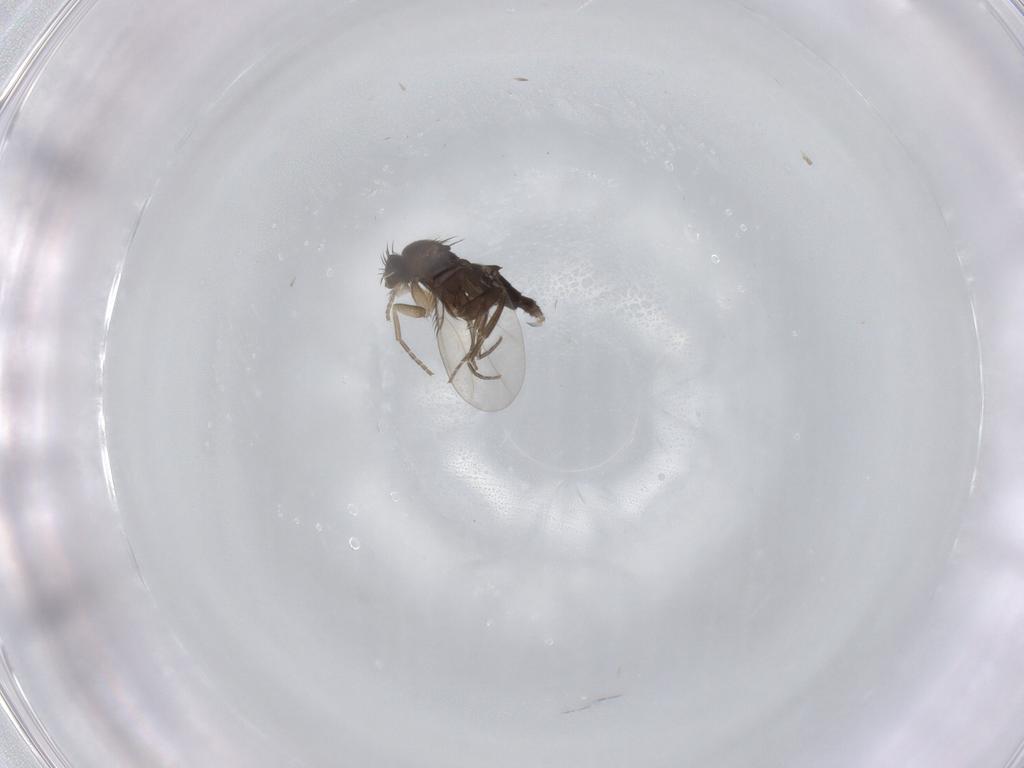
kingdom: Animalia
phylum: Arthropoda
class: Insecta
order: Diptera
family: Phoridae
